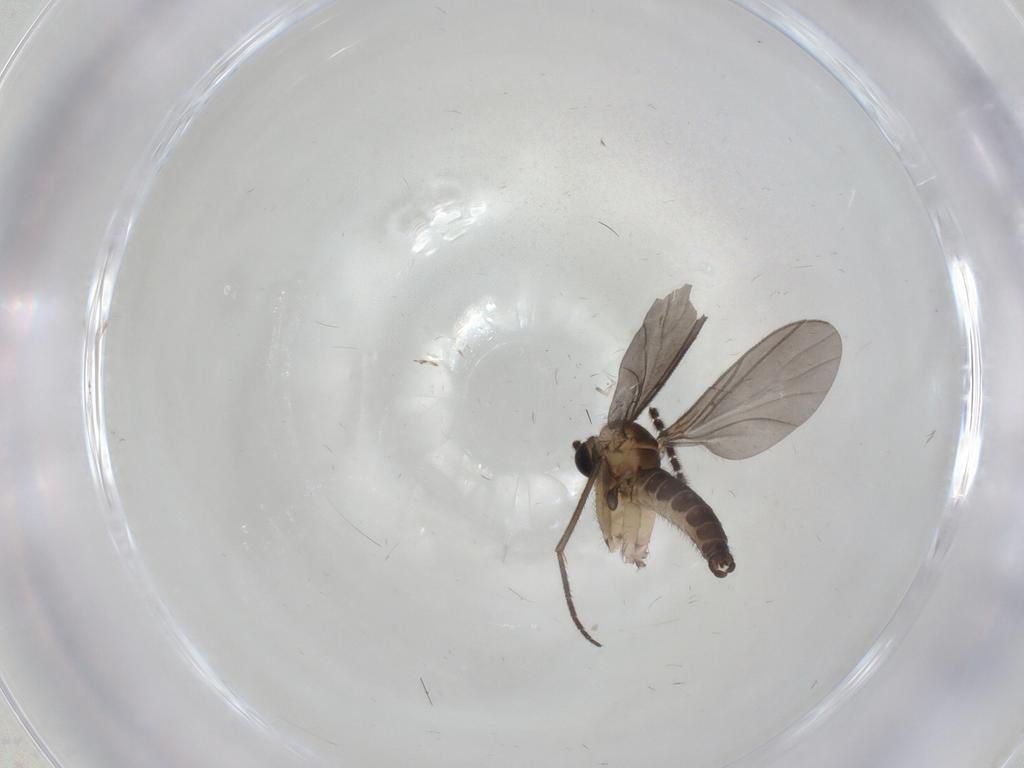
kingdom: Animalia
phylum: Arthropoda
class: Insecta
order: Diptera
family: Sciaridae
